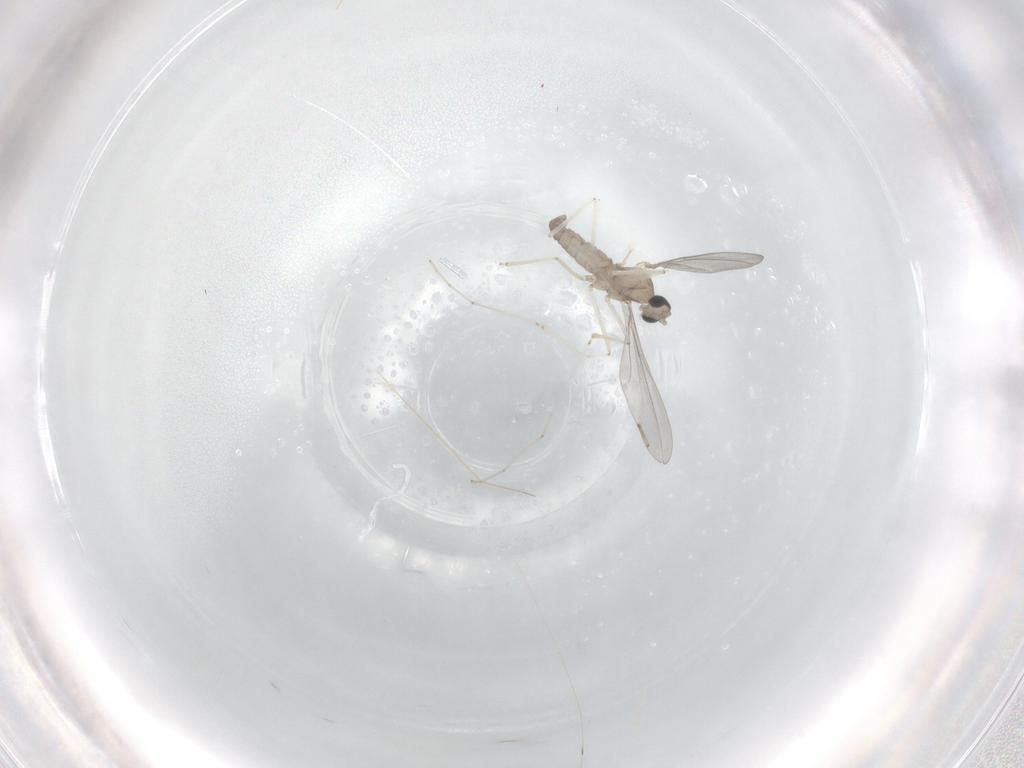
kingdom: Animalia
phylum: Arthropoda
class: Insecta
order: Diptera
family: Cecidomyiidae
